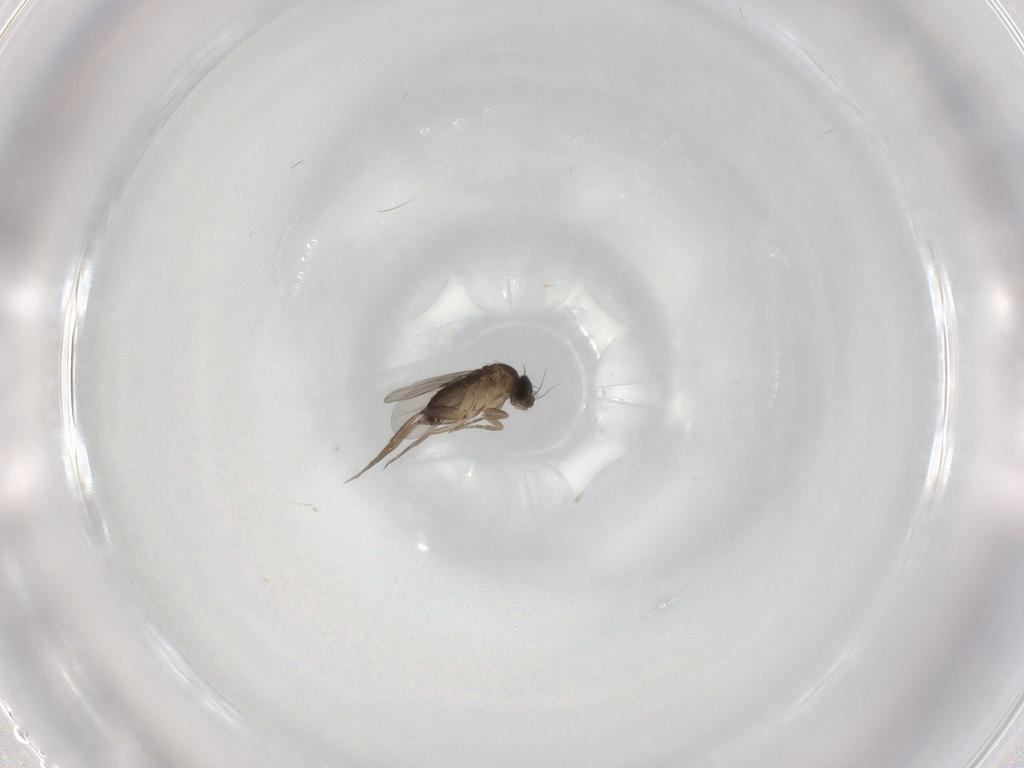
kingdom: Animalia
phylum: Arthropoda
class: Insecta
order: Diptera
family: Phoridae
